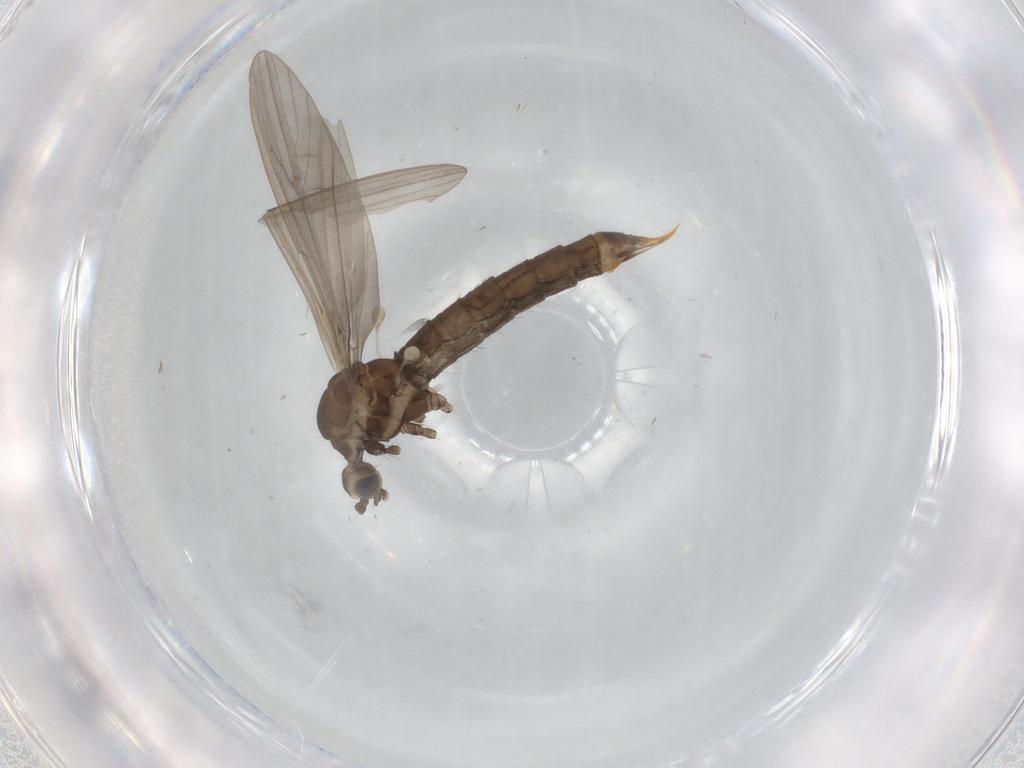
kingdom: Animalia
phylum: Arthropoda
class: Insecta
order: Diptera
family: Limoniidae
